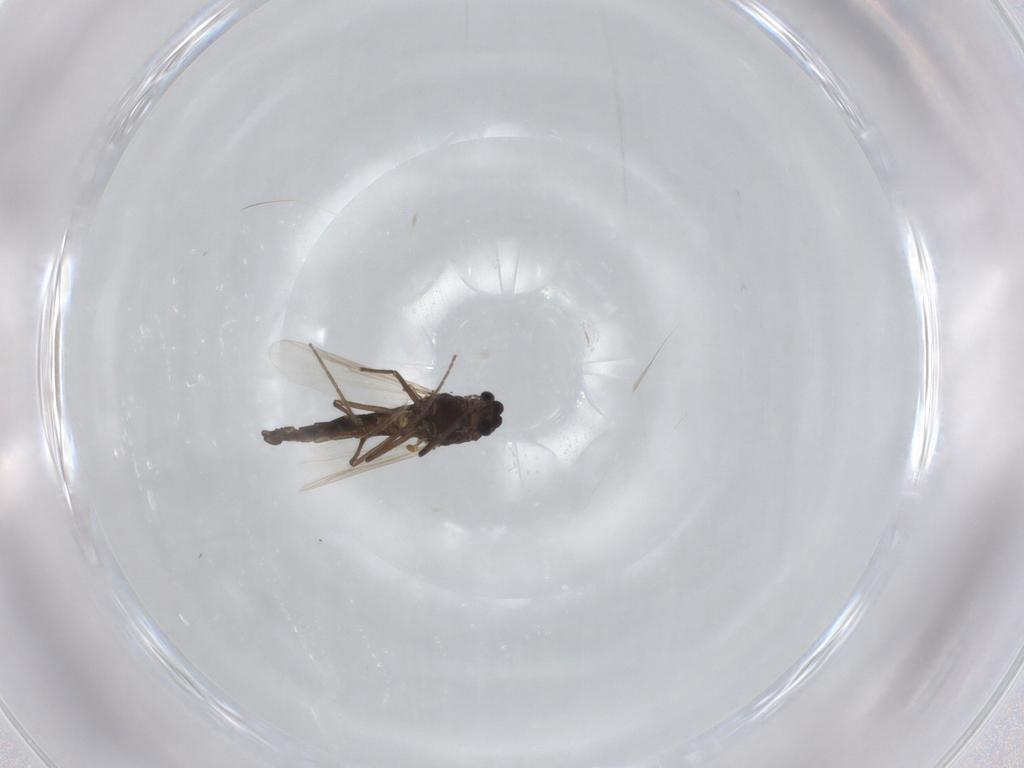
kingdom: Animalia
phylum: Arthropoda
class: Insecta
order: Diptera
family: Chironomidae
